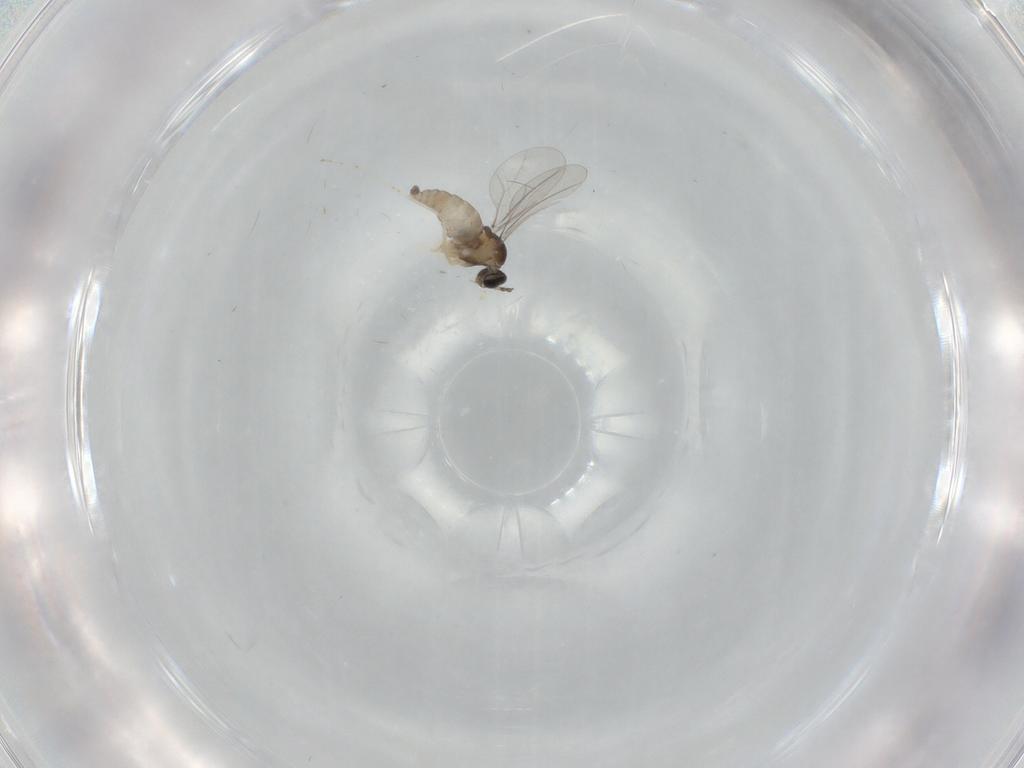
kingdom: Animalia
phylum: Arthropoda
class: Insecta
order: Diptera
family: Cecidomyiidae
